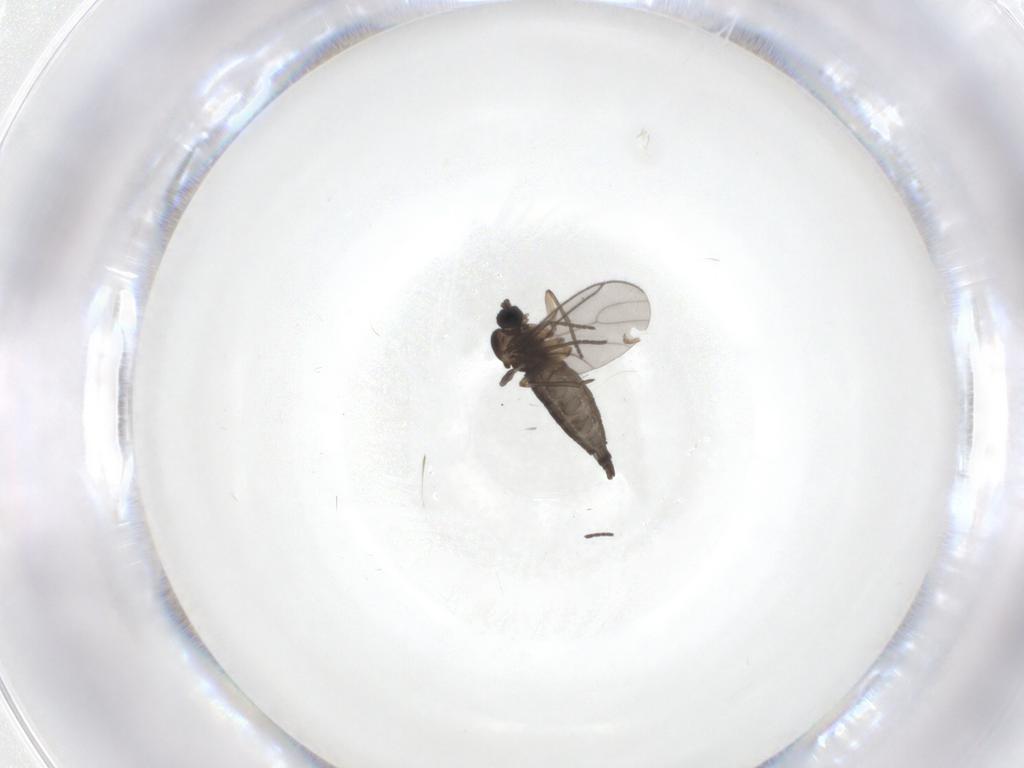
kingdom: Animalia
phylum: Arthropoda
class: Insecta
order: Diptera
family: Sciaridae
